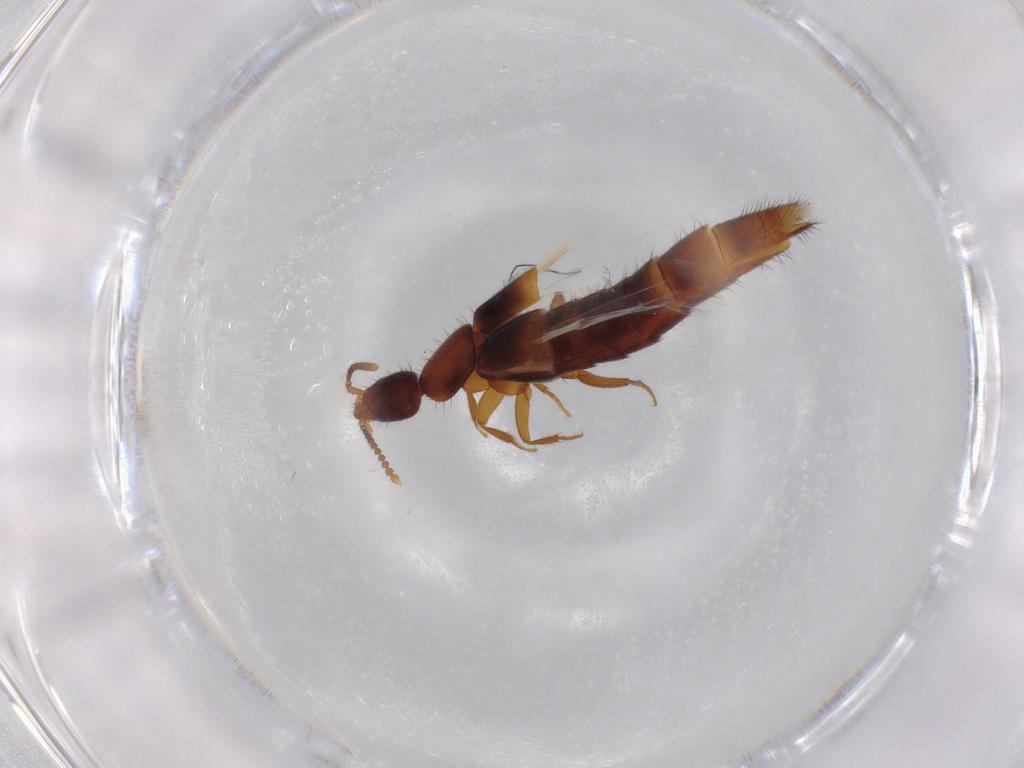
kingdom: Animalia
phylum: Arthropoda
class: Insecta
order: Coleoptera
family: Staphylinidae
